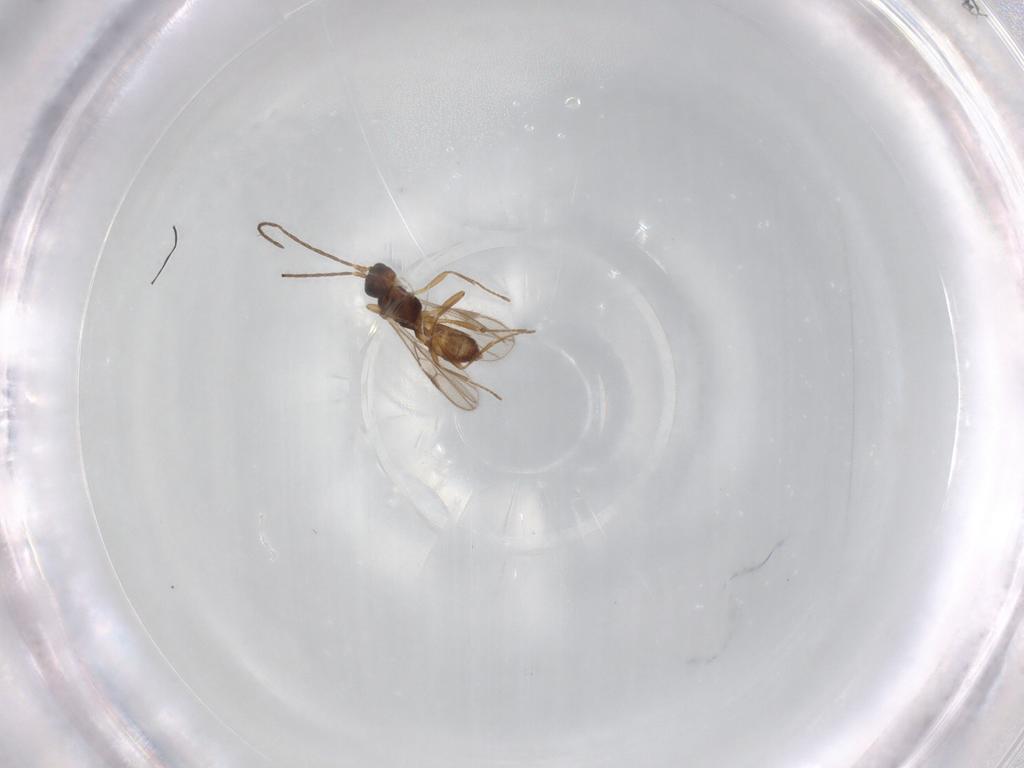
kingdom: Animalia
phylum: Arthropoda
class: Insecta
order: Hymenoptera
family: Braconidae
